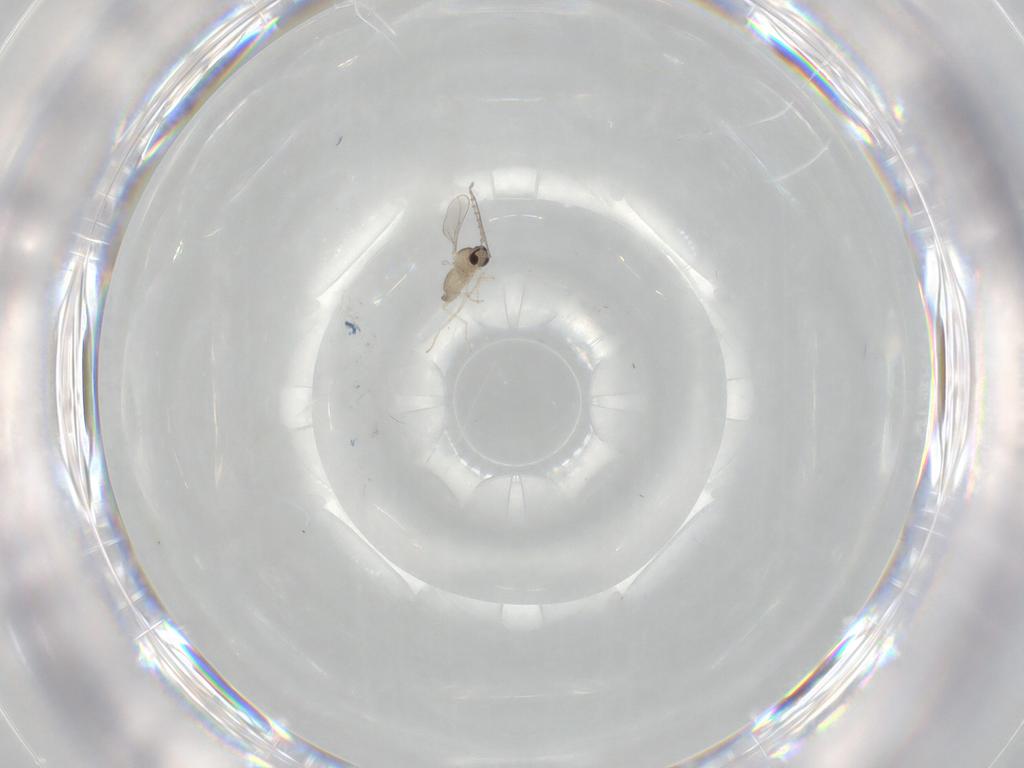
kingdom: Animalia
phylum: Arthropoda
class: Insecta
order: Diptera
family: Cecidomyiidae
